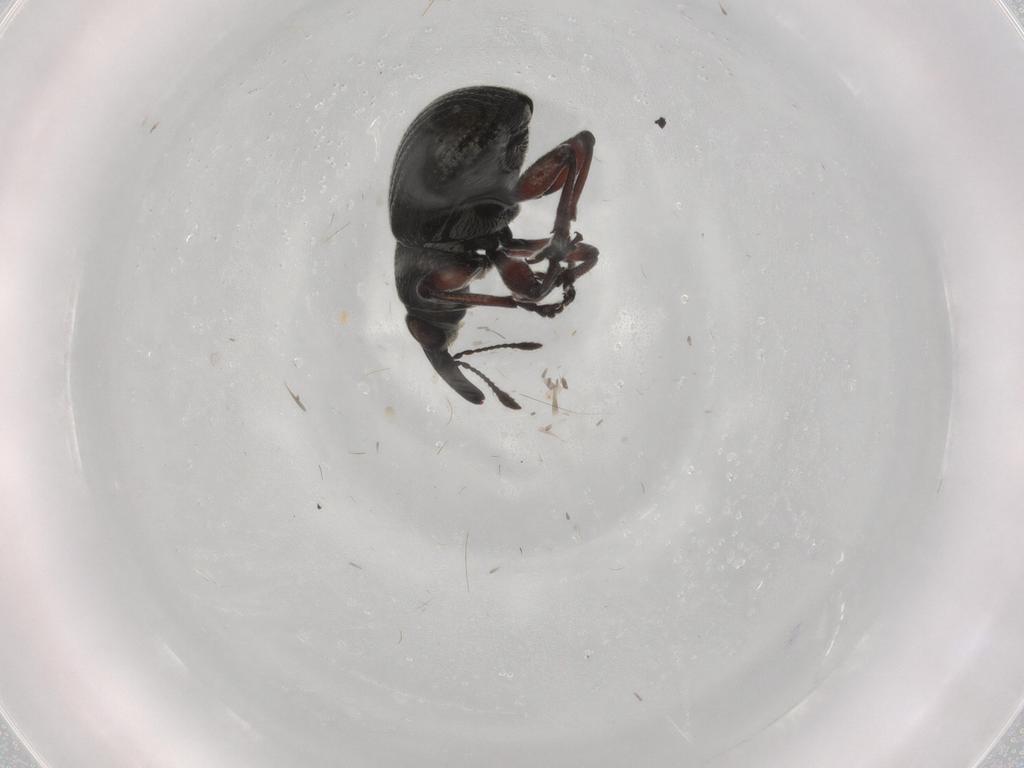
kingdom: Animalia
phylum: Arthropoda
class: Insecta
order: Coleoptera
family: Brentidae
